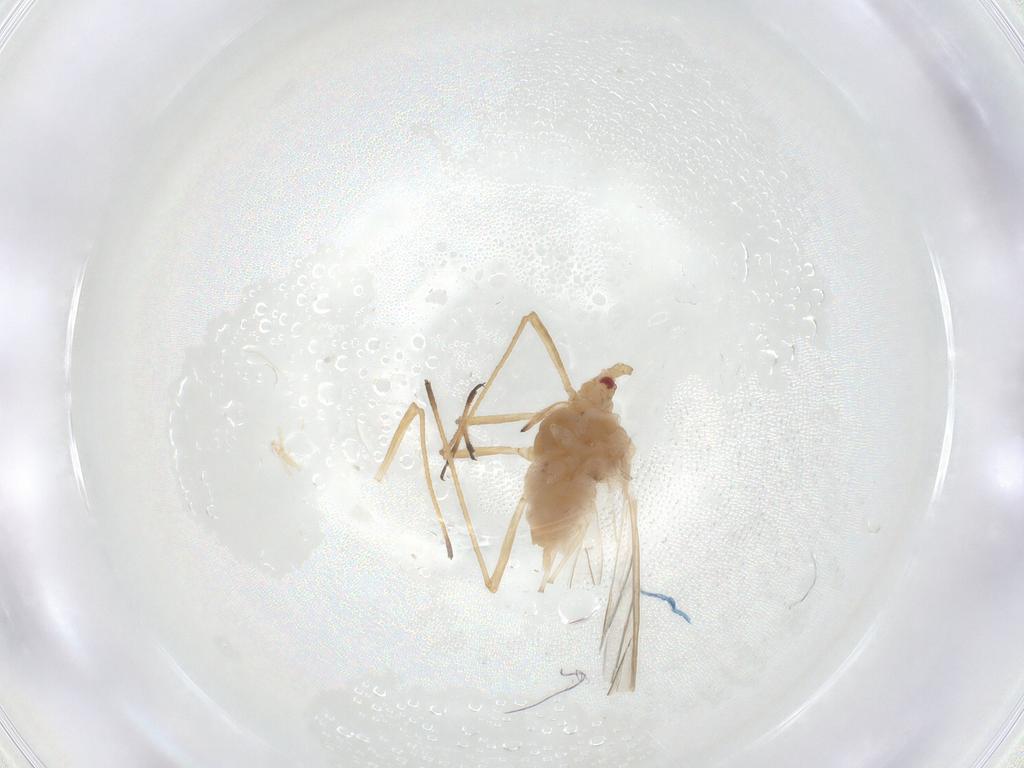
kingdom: Animalia
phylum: Arthropoda
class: Insecta
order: Hemiptera
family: Aphididae
